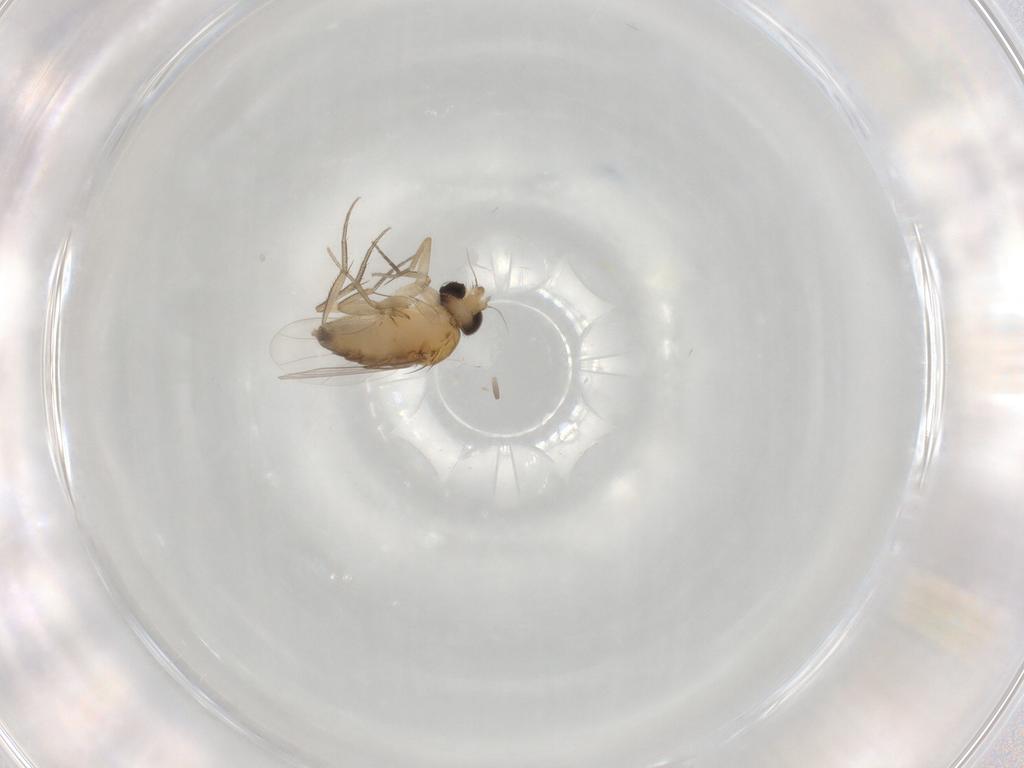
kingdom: Animalia
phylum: Arthropoda
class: Insecta
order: Diptera
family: Phoridae
